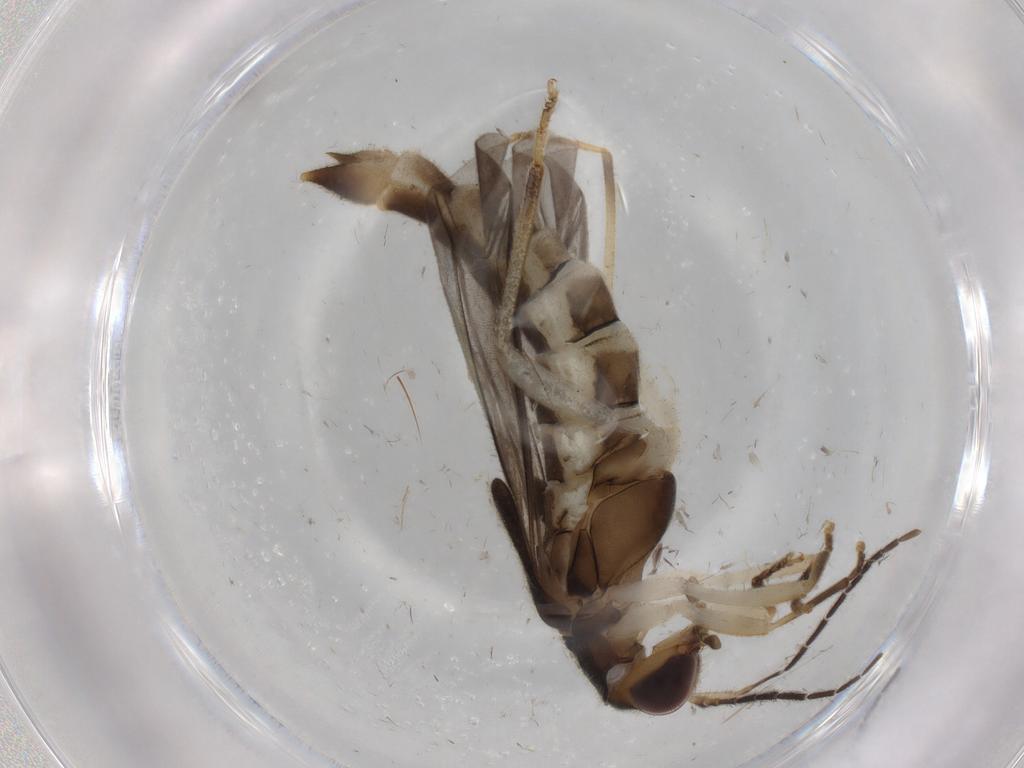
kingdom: Animalia
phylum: Arthropoda
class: Insecta
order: Coleoptera
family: Cantharidae
